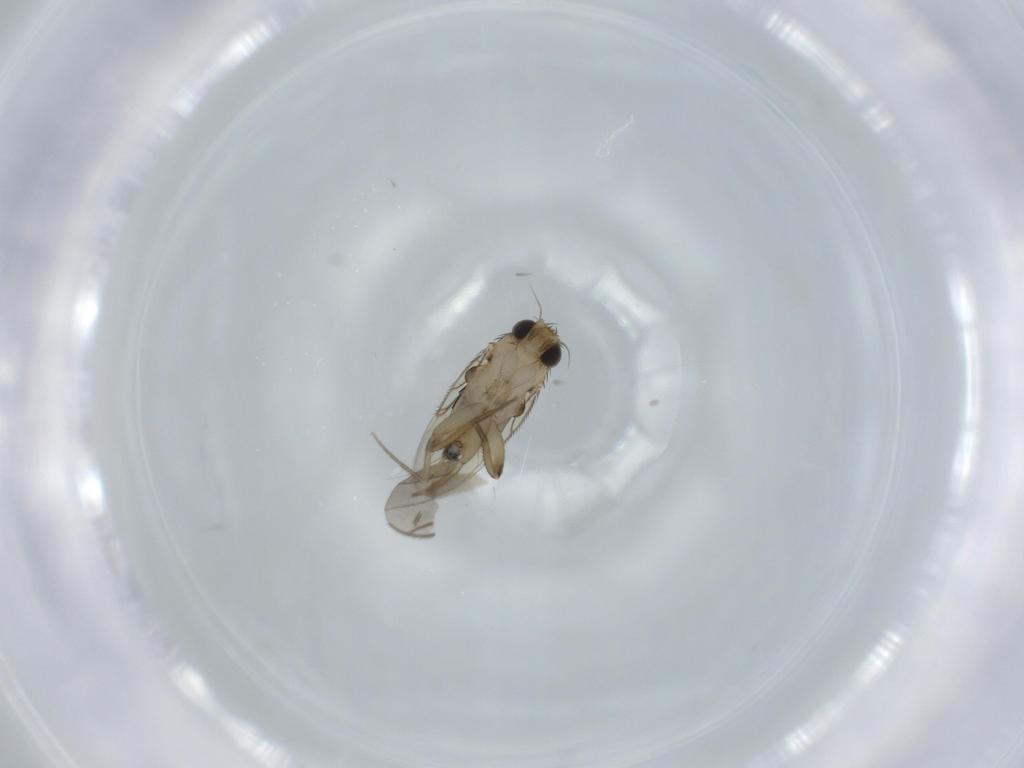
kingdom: Animalia
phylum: Arthropoda
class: Insecta
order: Diptera
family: Phoridae
